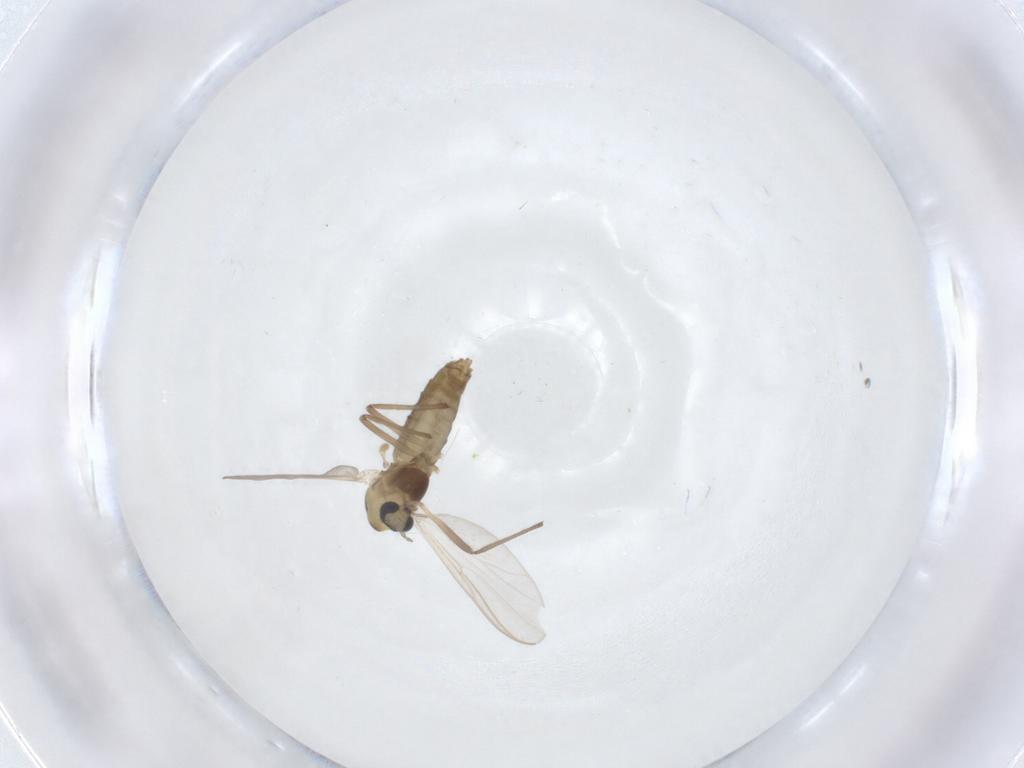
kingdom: Animalia
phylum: Arthropoda
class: Insecta
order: Diptera
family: Chironomidae
